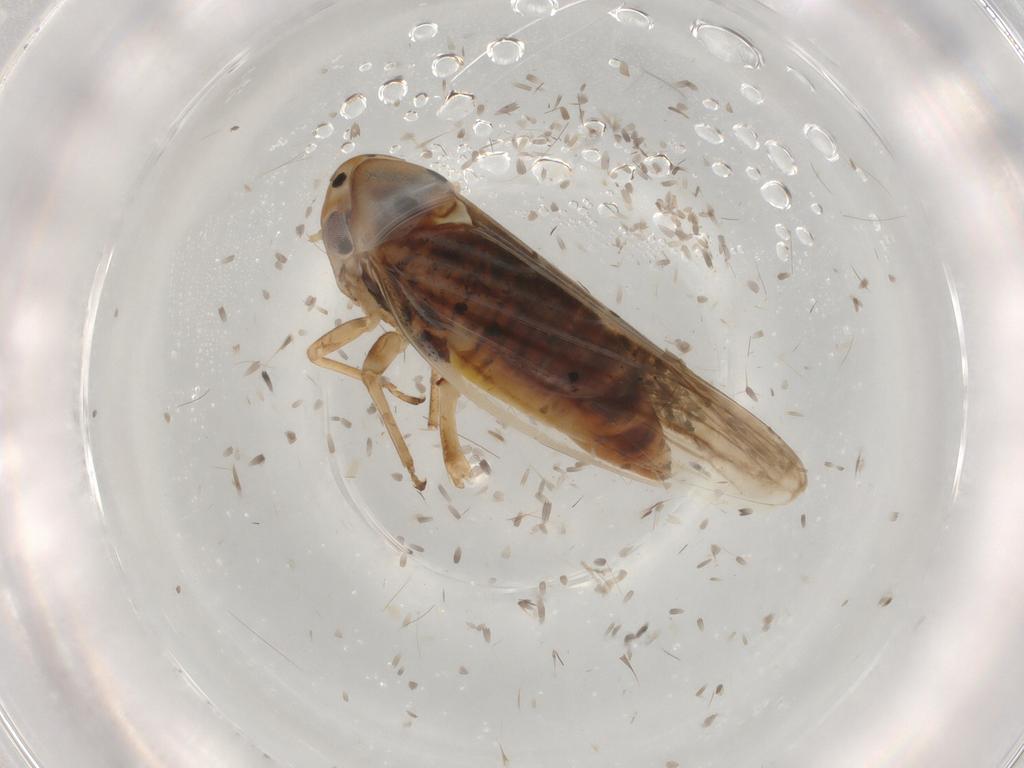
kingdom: Animalia
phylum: Arthropoda
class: Insecta
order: Hemiptera
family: Cicadellidae
